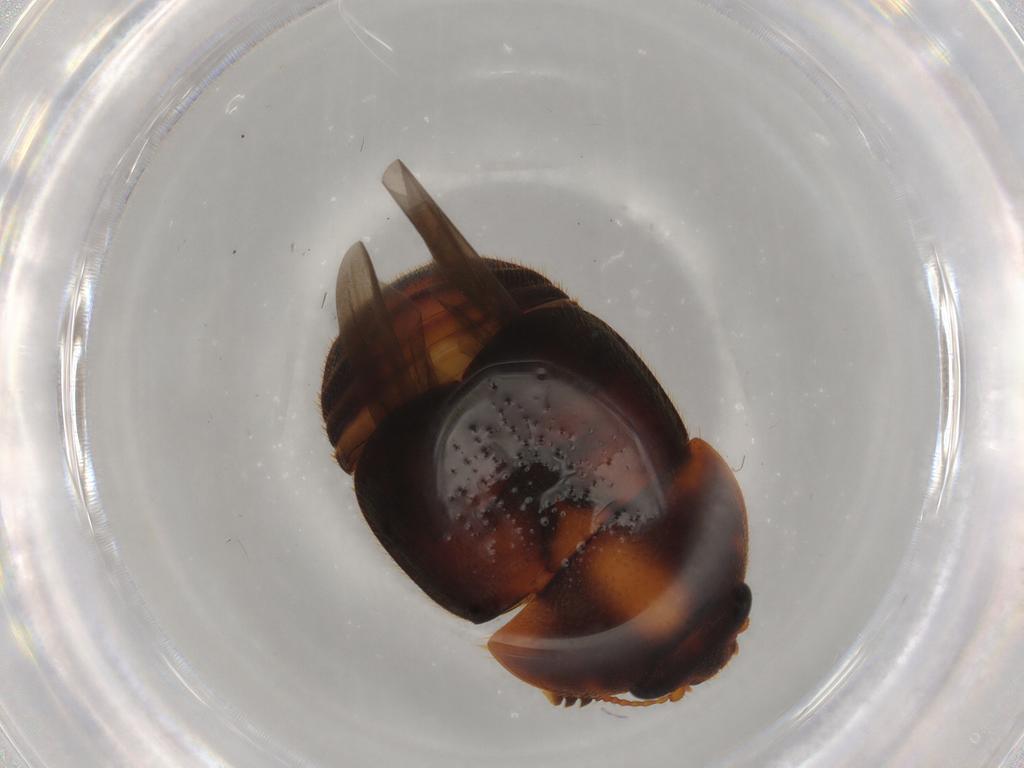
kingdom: Animalia
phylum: Arthropoda
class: Insecta
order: Coleoptera
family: Nitidulidae
